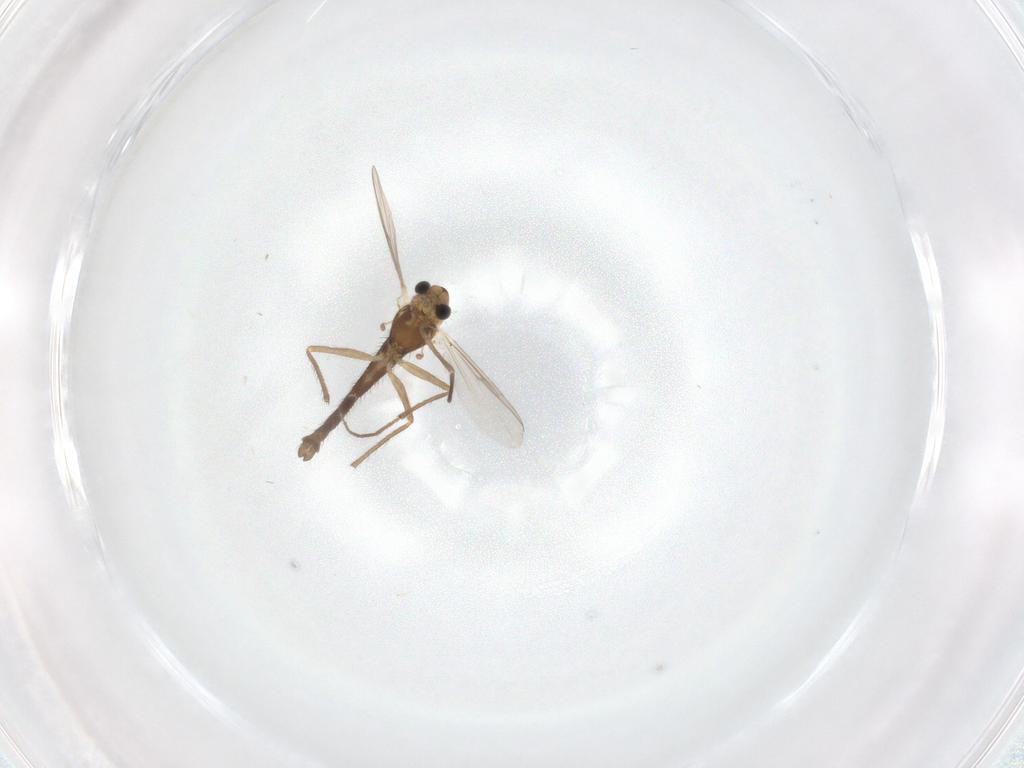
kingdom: Animalia
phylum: Arthropoda
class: Insecta
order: Diptera
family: Chironomidae
